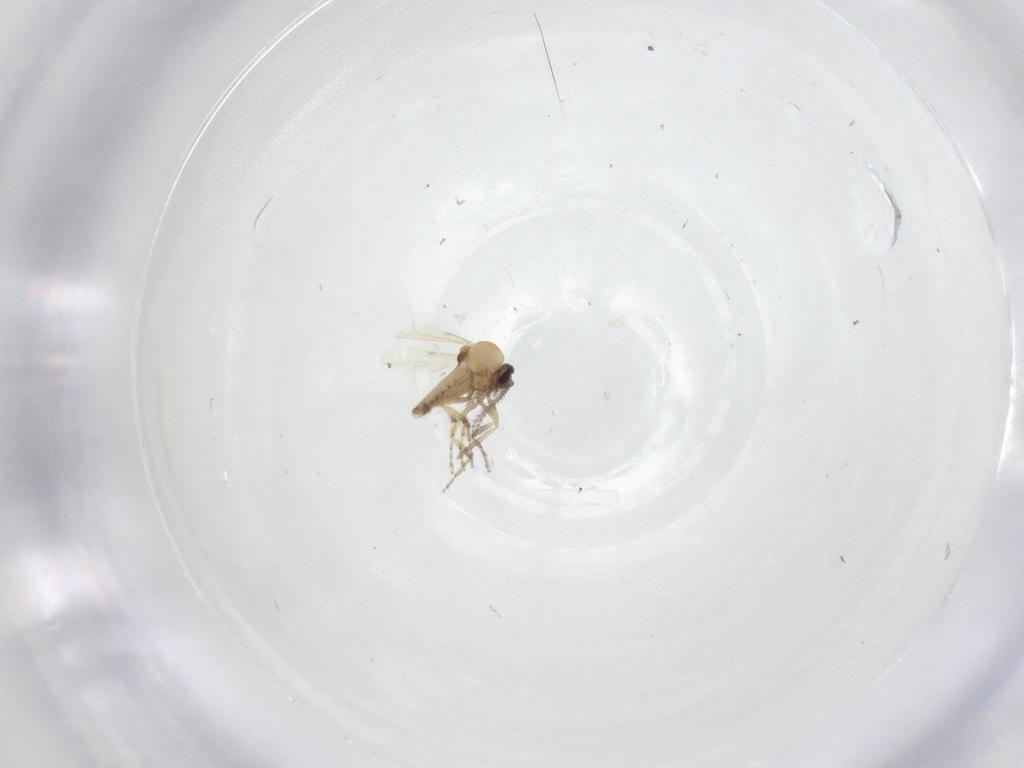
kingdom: Animalia
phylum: Arthropoda
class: Insecta
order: Diptera
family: Ceratopogonidae
